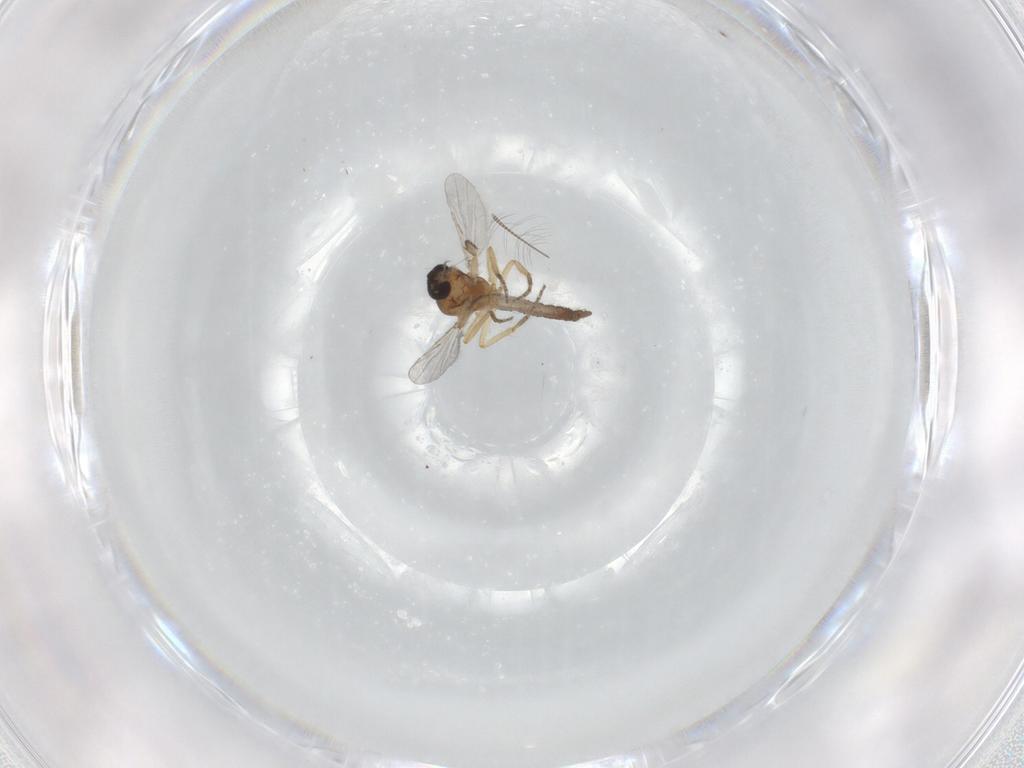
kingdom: Animalia
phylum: Arthropoda
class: Insecta
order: Diptera
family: Ceratopogonidae
